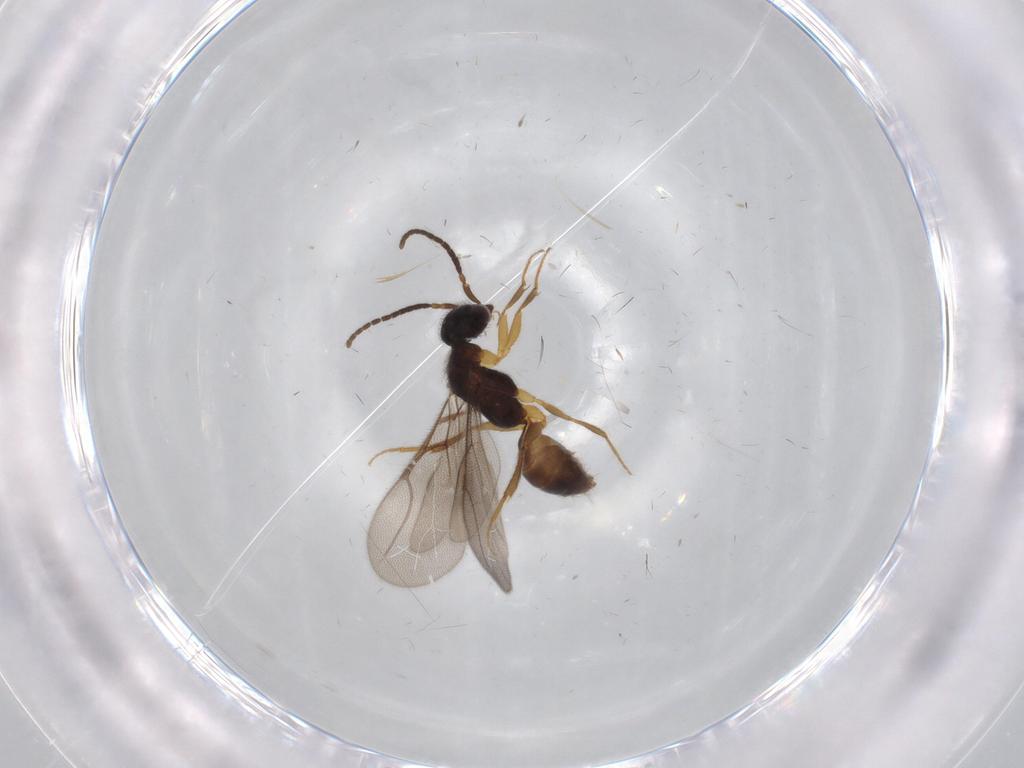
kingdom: Animalia
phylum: Arthropoda
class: Insecta
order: Hymenoptera
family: Bethylidae
